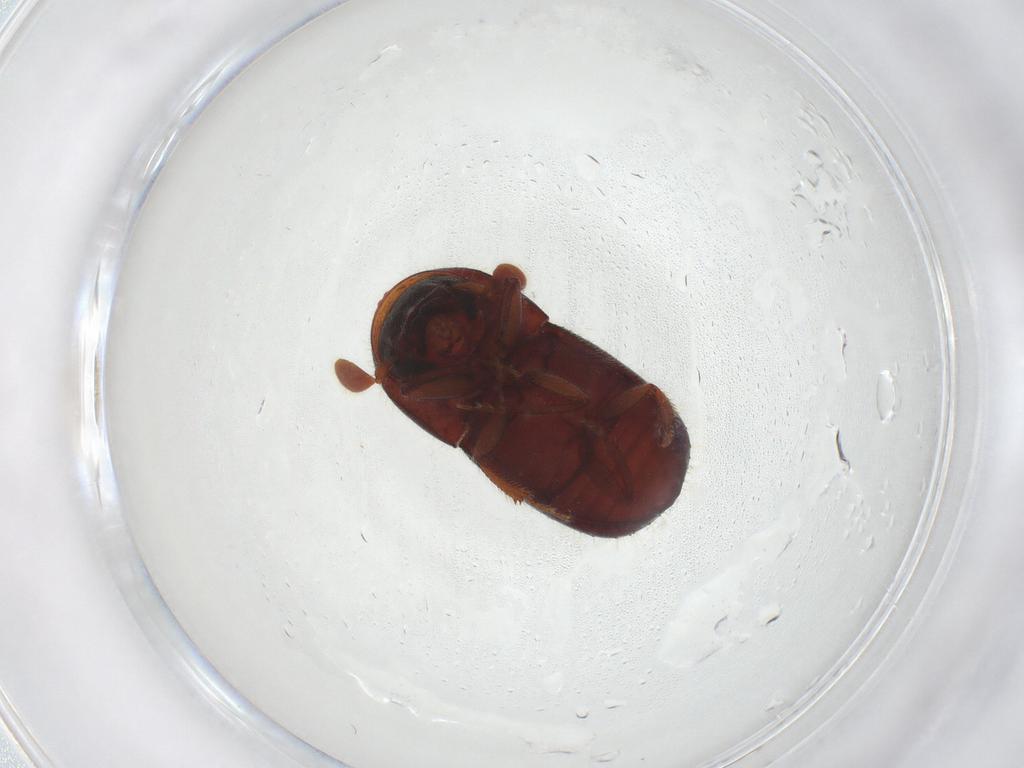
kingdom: Animalia
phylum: Arthropoda
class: Insecta
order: Coleoptera
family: Curculionidae
